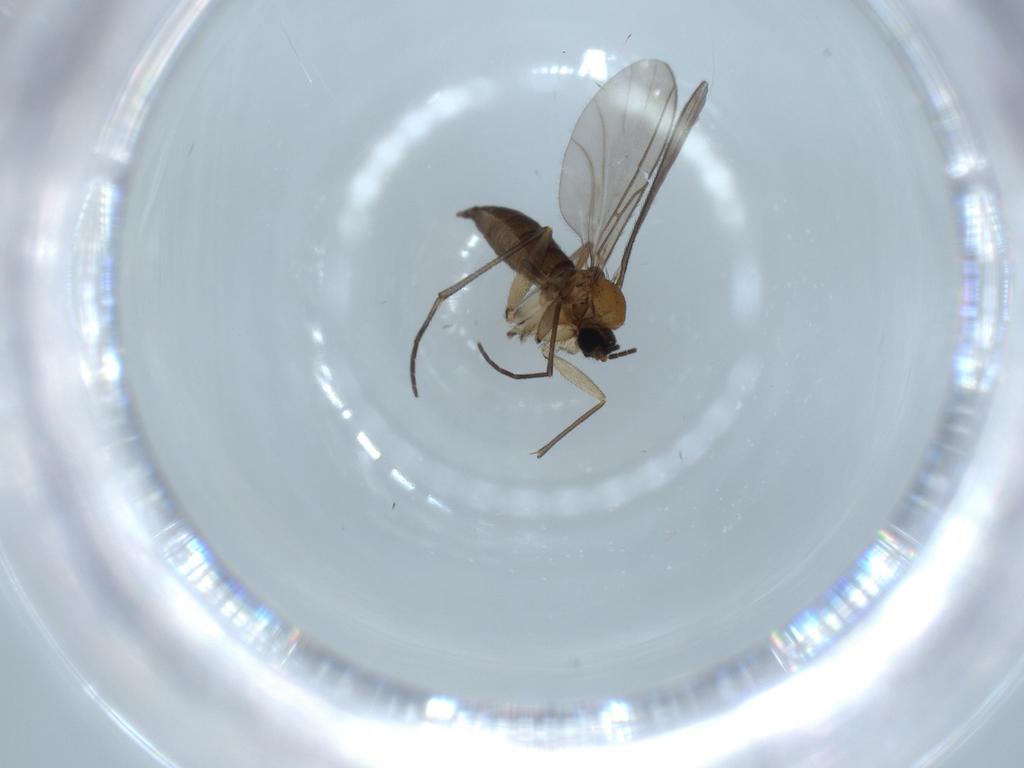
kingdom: Animalia
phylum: Arthropoda
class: Insecta
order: Diptera
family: Sciaridae
